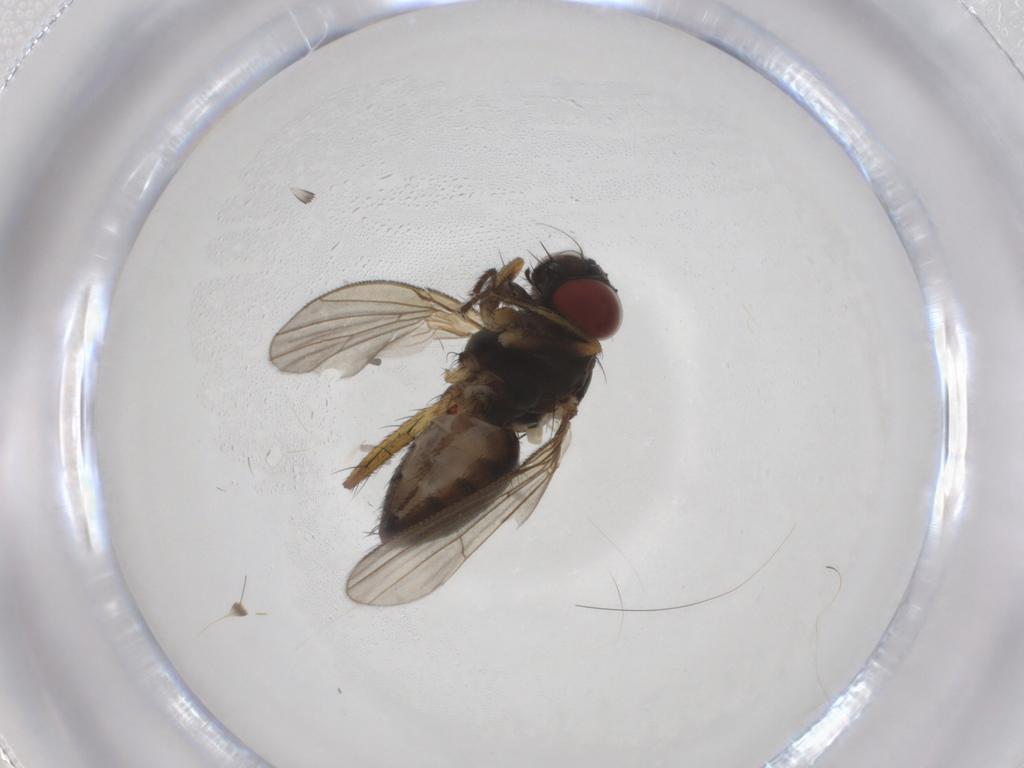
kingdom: Animalia
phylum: Arthropoda
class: Insecta
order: Diptera
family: Muscidae
